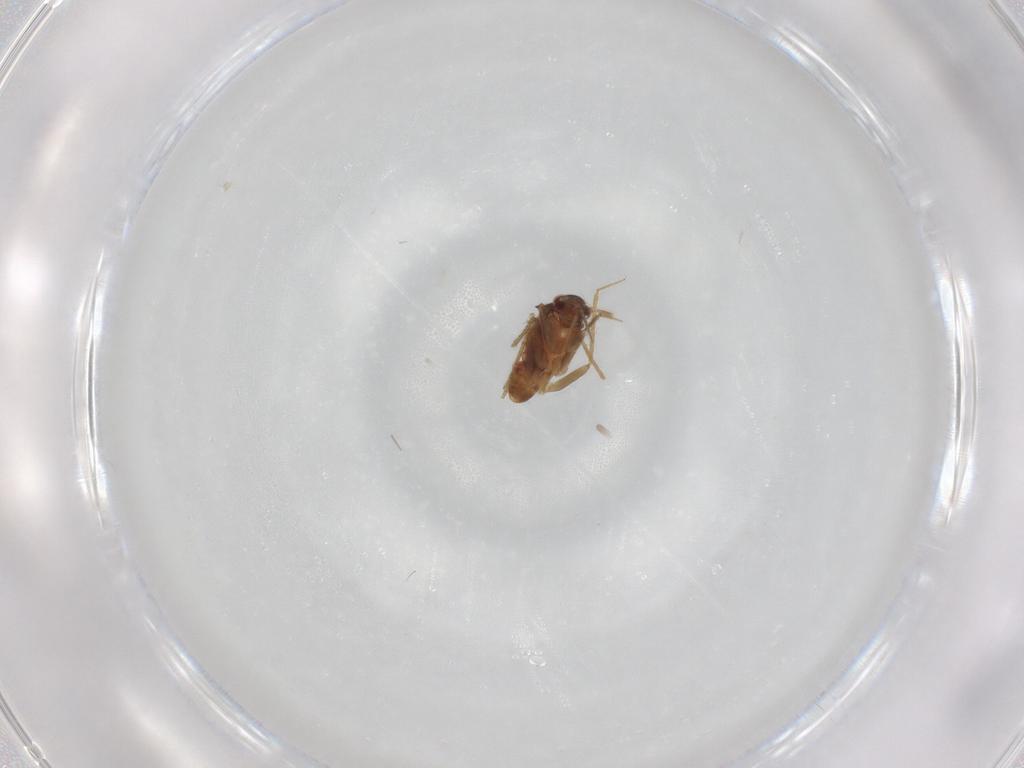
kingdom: Animalia
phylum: Arthropoda
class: Insecta
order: Hemiptera
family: Ceratocombidae
